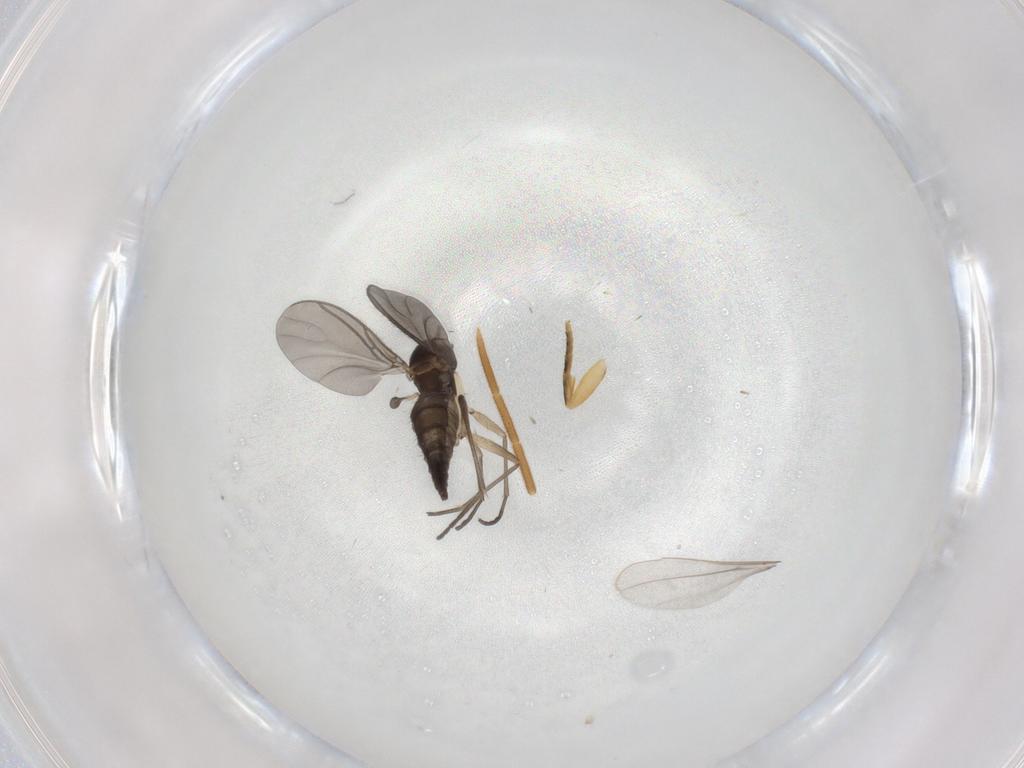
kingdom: Animalia
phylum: Arthropoda
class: Insecta
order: Diptera
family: Sciaridae
